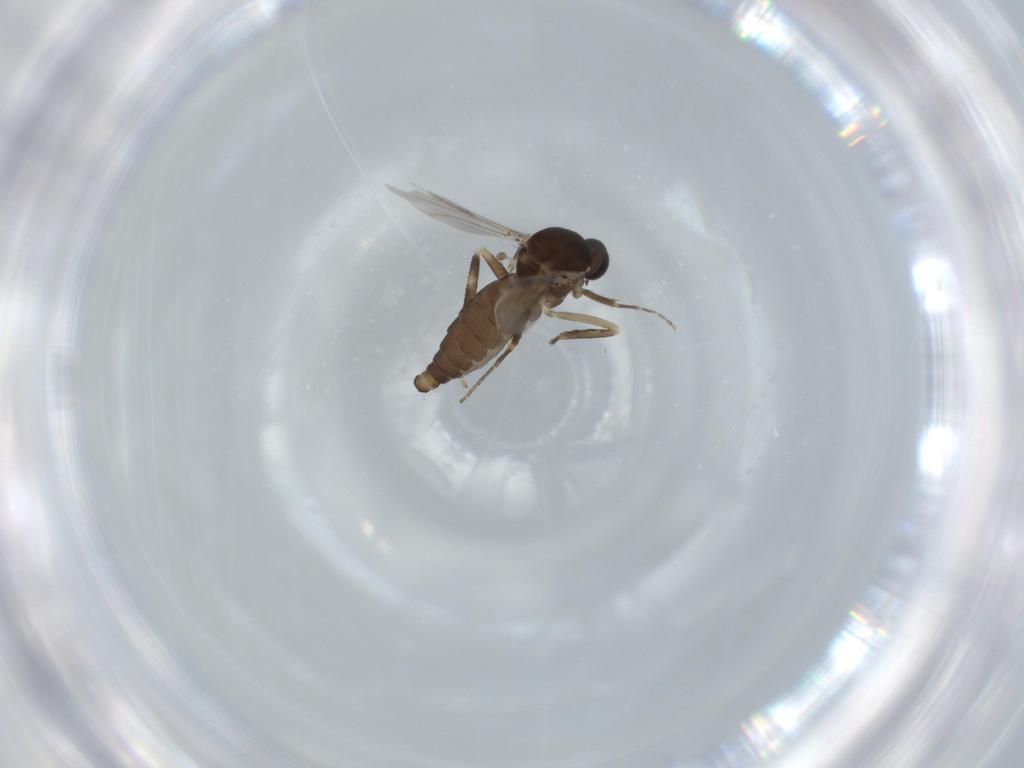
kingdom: Animalia
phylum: Arthropoda
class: Insecta
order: Diptera
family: Ceratopogonidae
